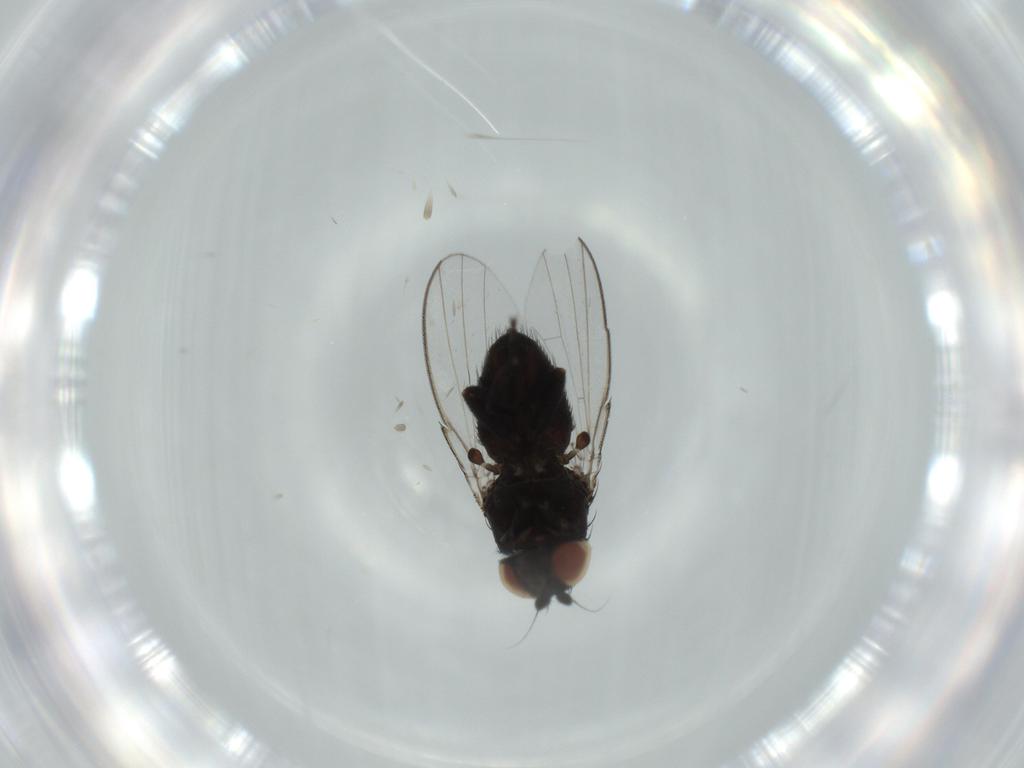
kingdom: Animalia
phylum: Arthropoda
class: Insecta
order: Diptera
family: Milichiidae
